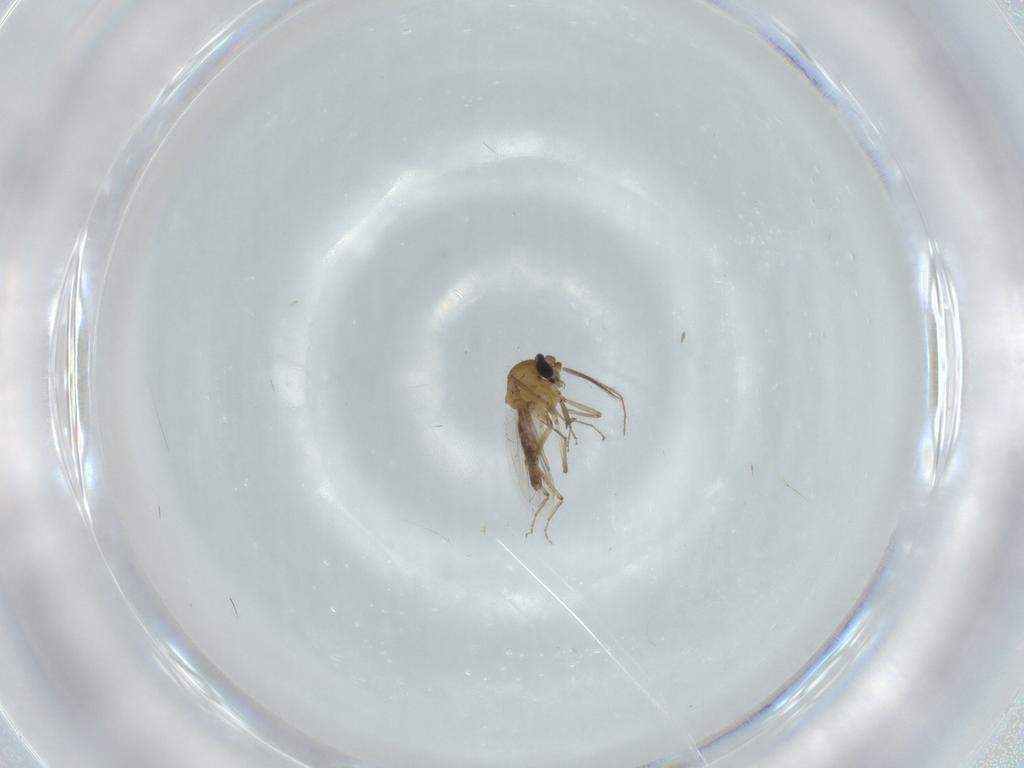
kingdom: Animalia
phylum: Arthropoda
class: Insecta
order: Diptera
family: Ceratopogonidae
